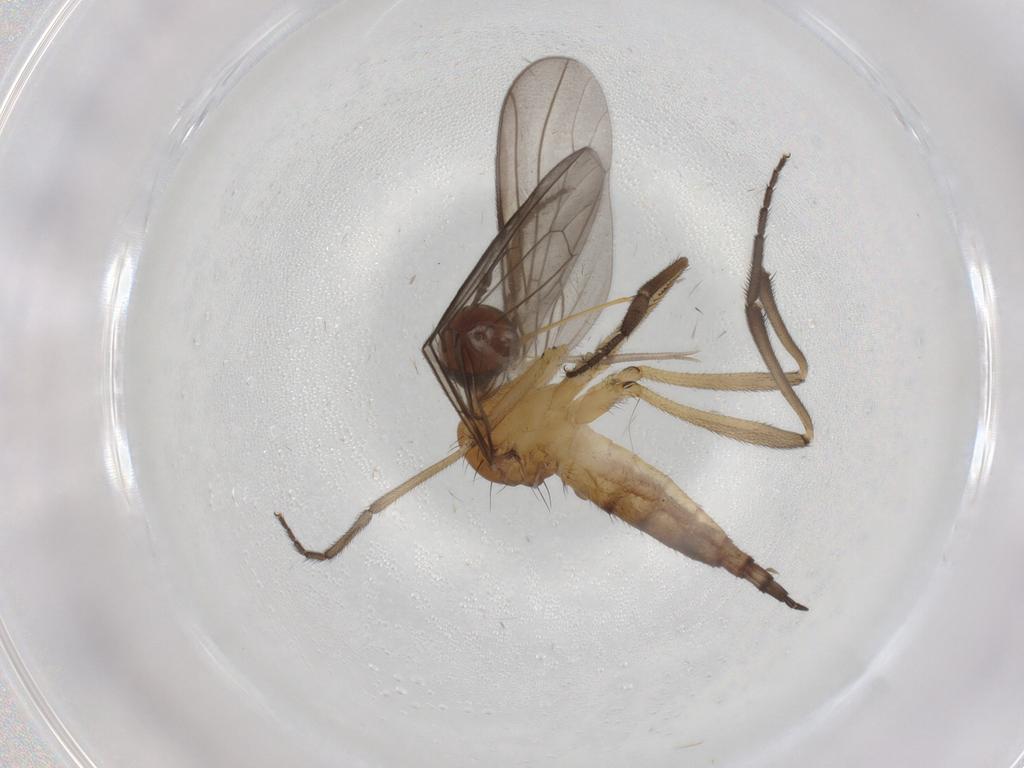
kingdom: Animalia
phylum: Arthropoda
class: Insecta
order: Diptera
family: Empididae
